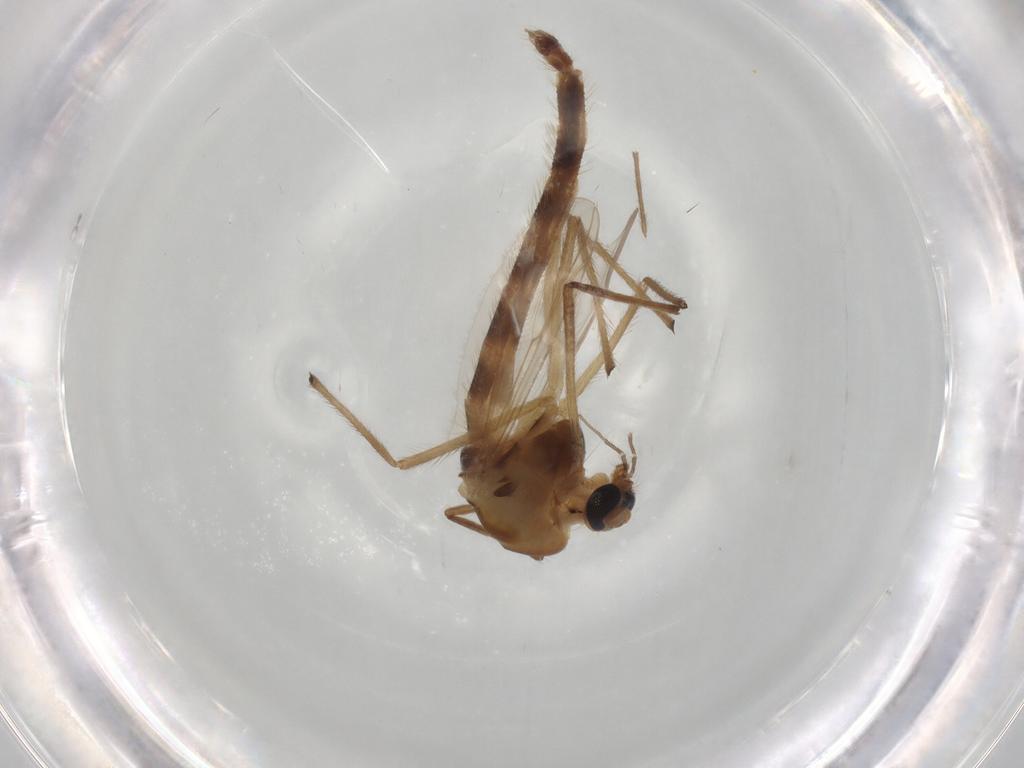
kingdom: Animalia
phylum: Arthropoda
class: Insecta
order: Diptera
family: Chironomidae
